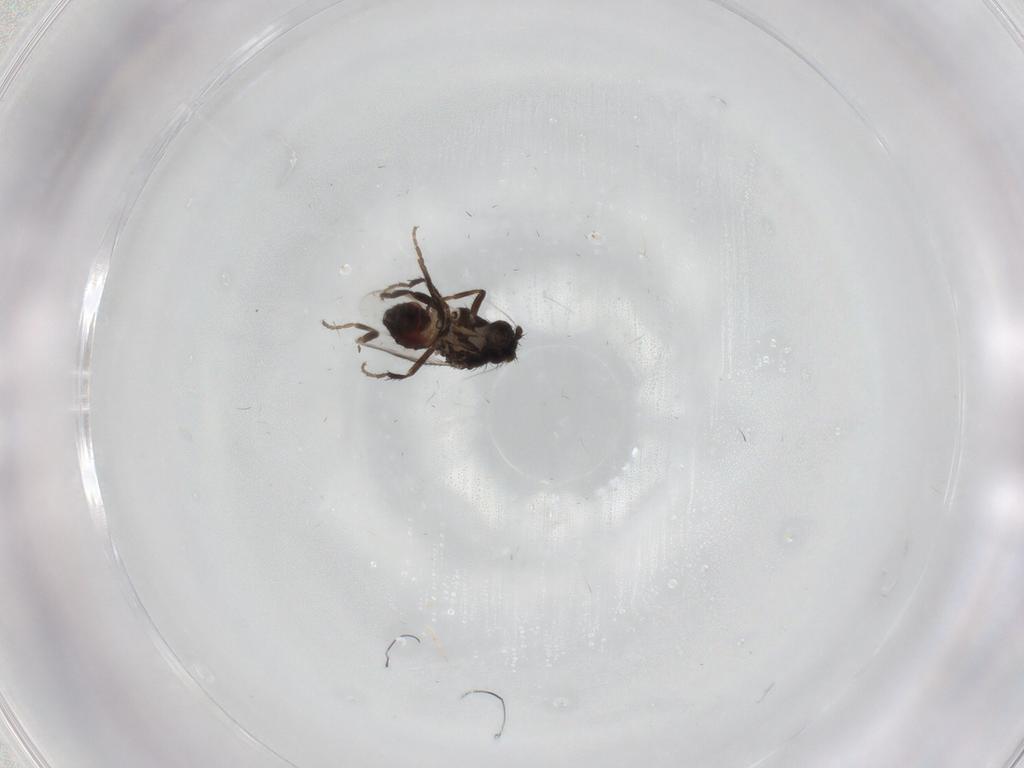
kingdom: Animalia
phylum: Arthropoda
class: Insecta
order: Diptera
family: Sphaeroceridae
